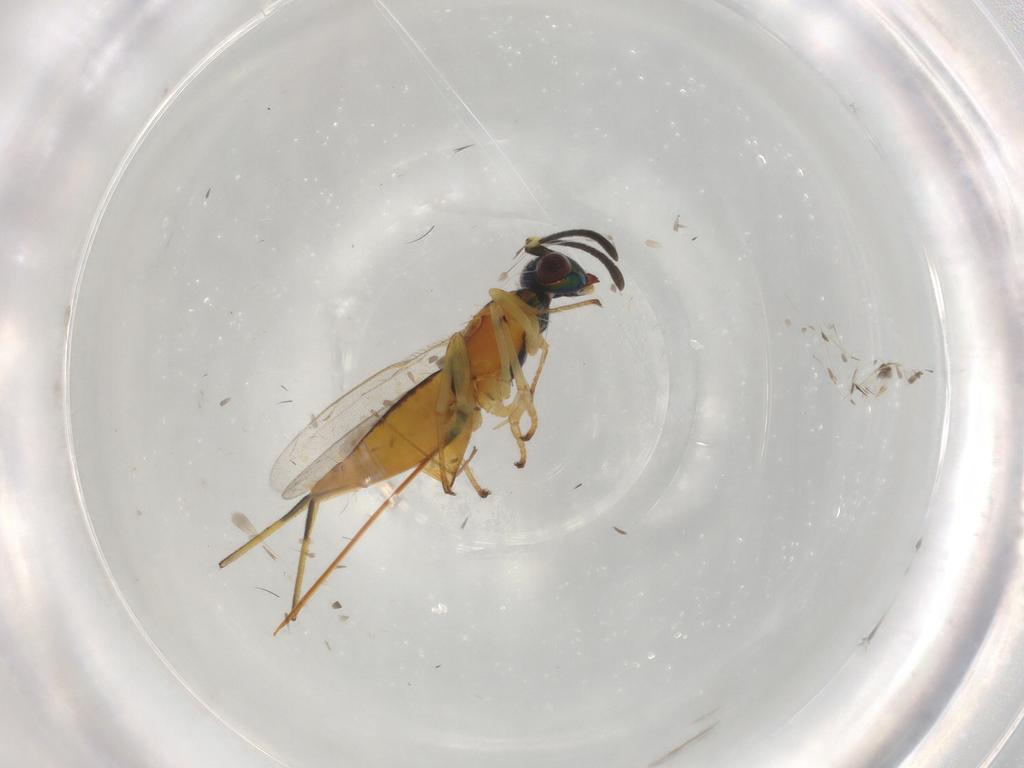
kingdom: Animalia
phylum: Arthropoda
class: Insecta
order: Hymenoptera
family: Eupelmidae
